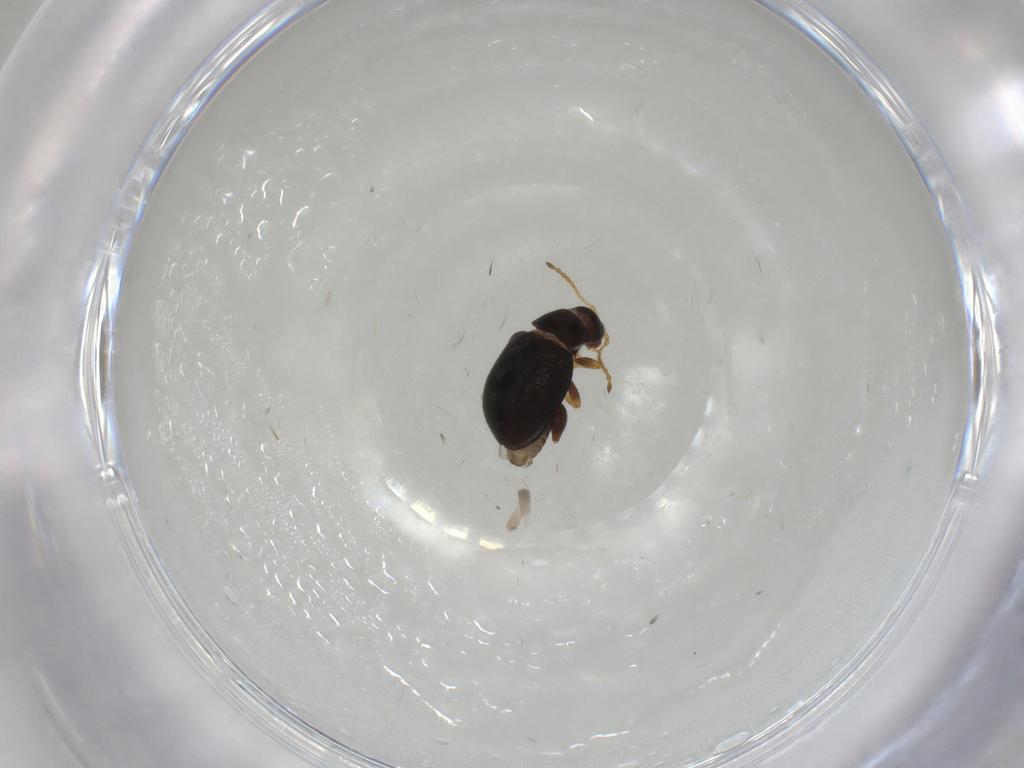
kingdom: Animalia
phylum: Arthropoda
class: Insecta
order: Coleoptera
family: Chrysomelidae
